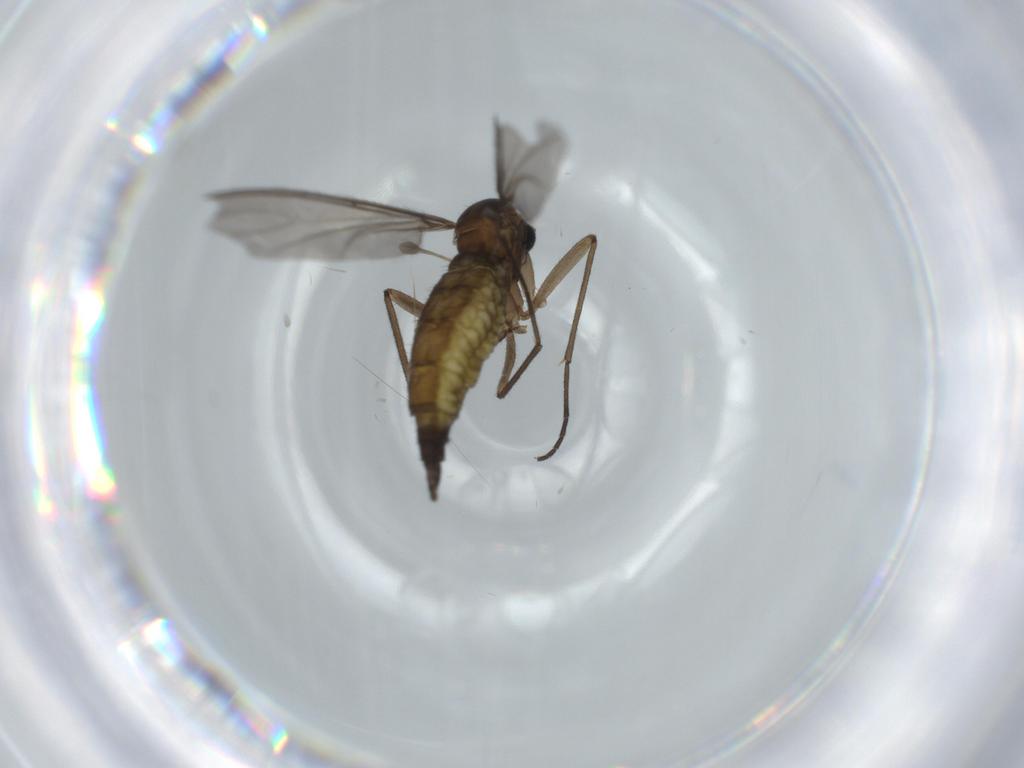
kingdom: Animalia
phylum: Arthropoda
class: Insecta
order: Diptera
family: Sciaridae
